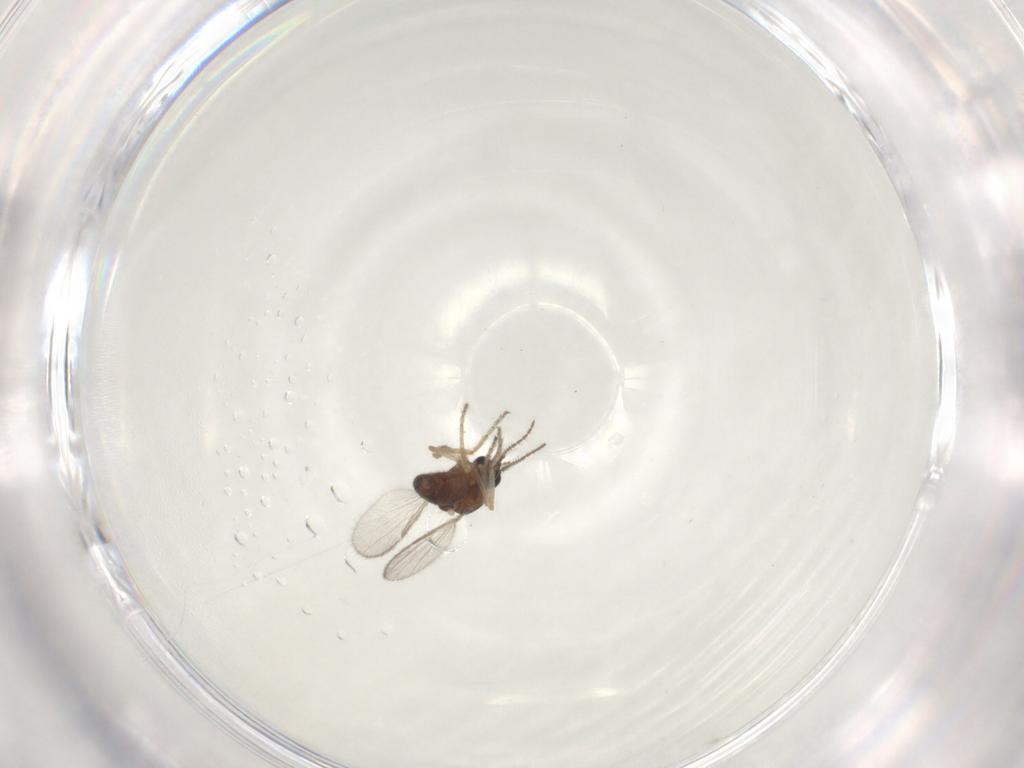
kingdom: Animalia
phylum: Arthropoda
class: Insecta
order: Diptera
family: Ceratopogonidae
